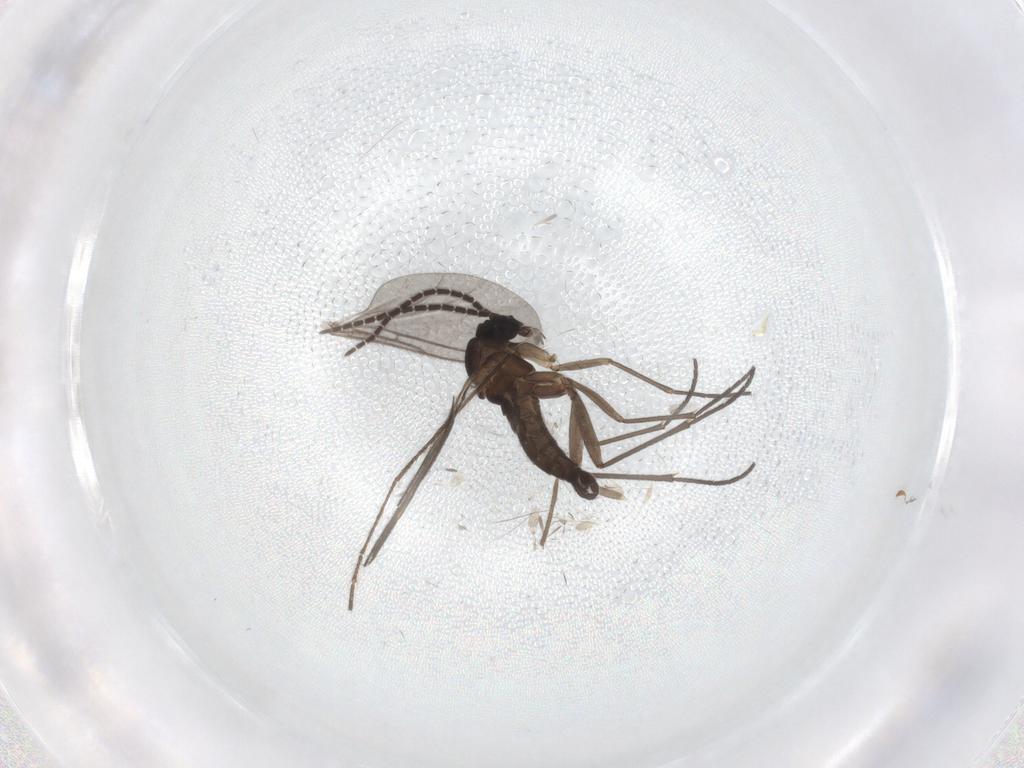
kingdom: Animalia
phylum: Arthropoda
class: Insecta
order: Diptera
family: Sciaridae
